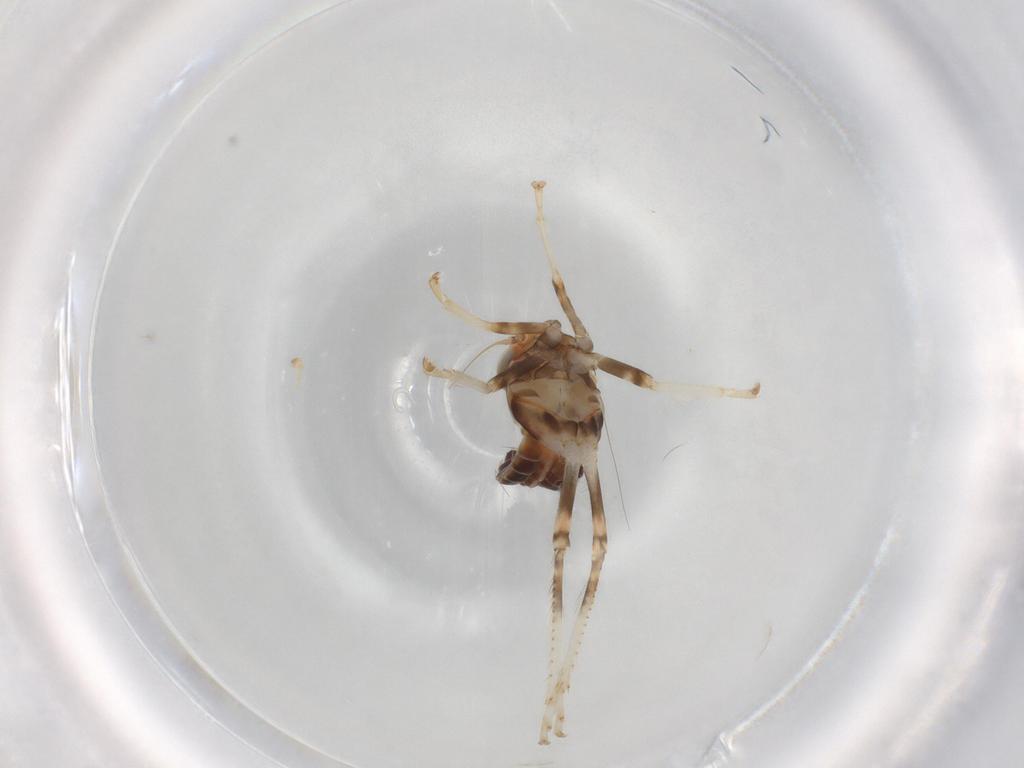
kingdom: Animalia
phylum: Arthropoda
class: Insecta
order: Hemiptera
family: Cicadellidae
